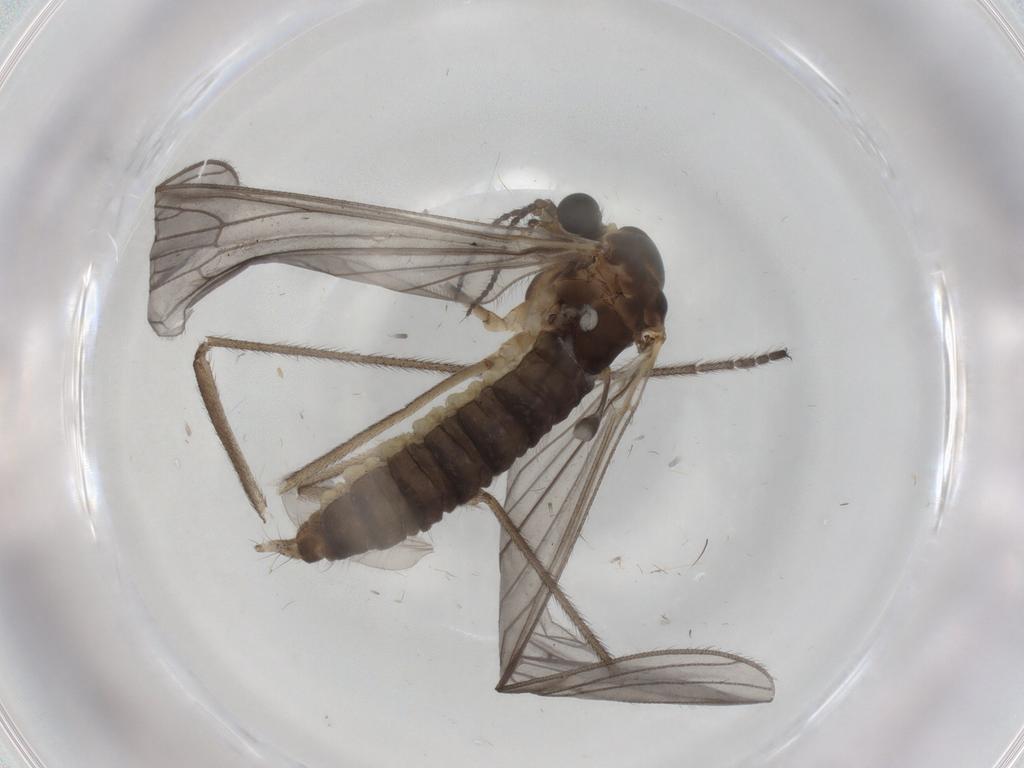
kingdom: Animalia
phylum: Arthropoda
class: Insecta
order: Diptera
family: Limoniidae
